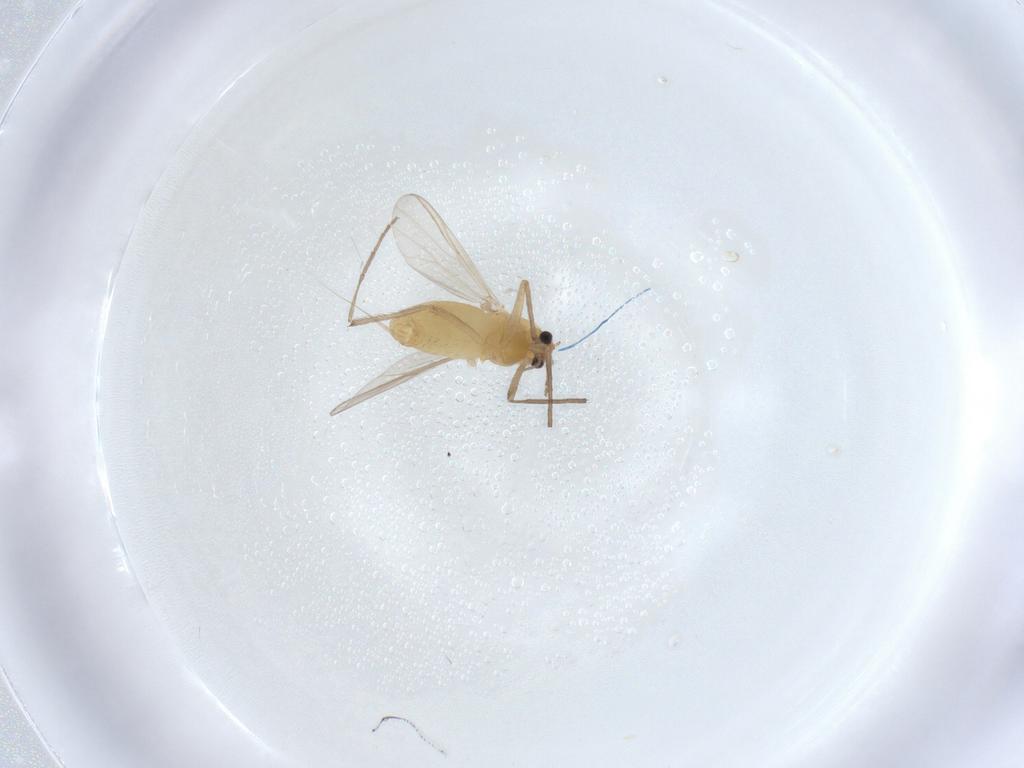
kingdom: Animalia
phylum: Arthropoda
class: Insecta
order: Diptera
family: Chironomidae
